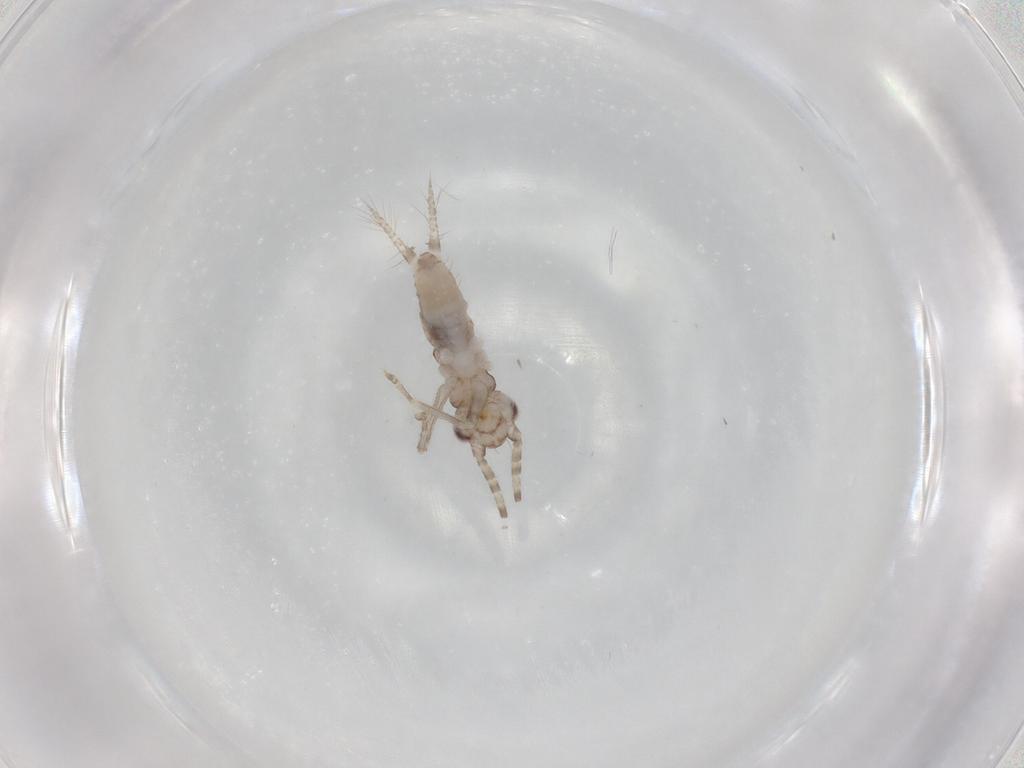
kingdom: Animalia
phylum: Arthropoda
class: Insecta
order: Orthoptera
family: Trigonidiidae
